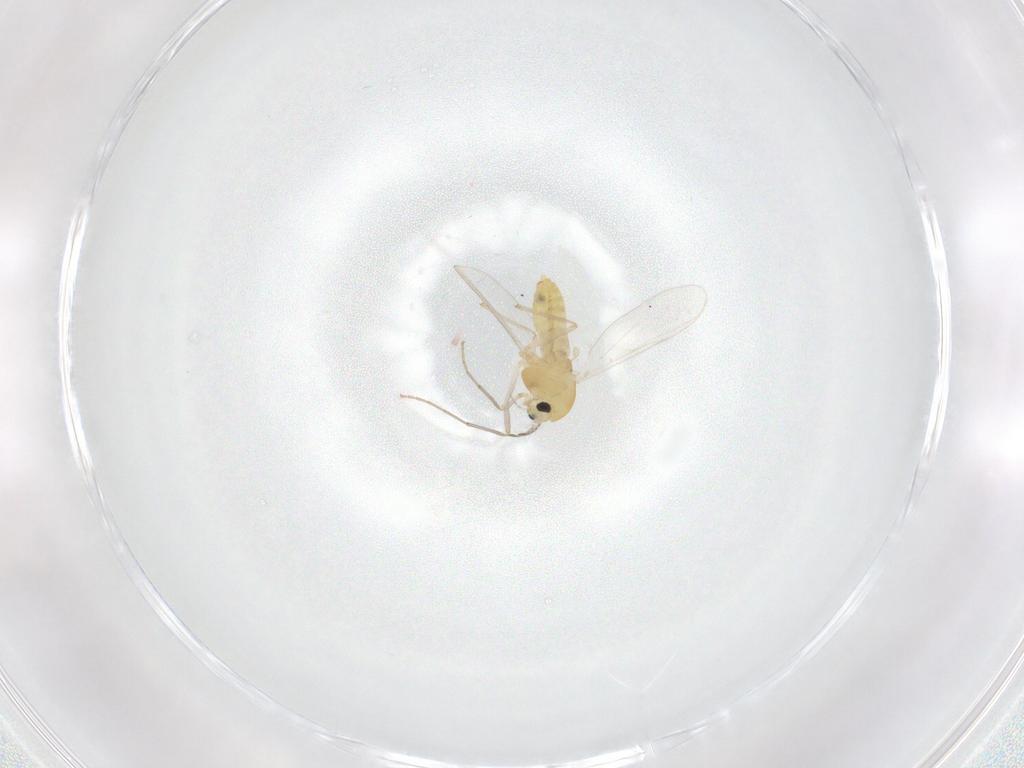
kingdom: Animalia
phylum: Arthropoda
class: Insecta
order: Diptera
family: Chironomidae
